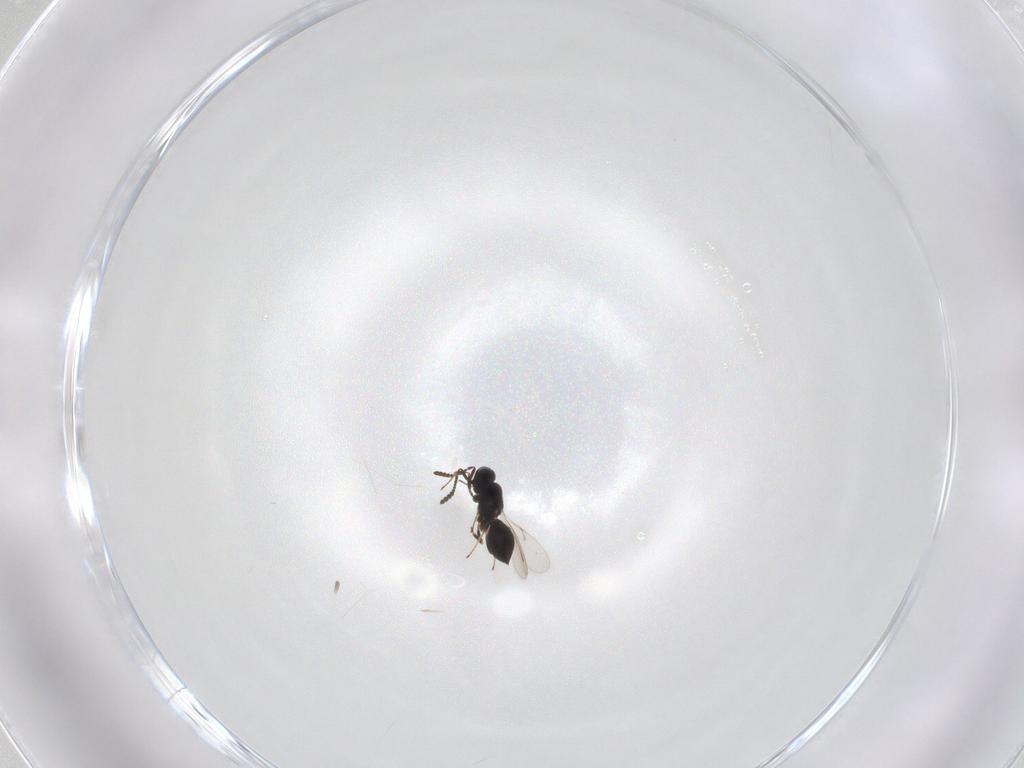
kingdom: Animalia
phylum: Arthropoda
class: Insecta
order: Hymenoptera
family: Scelionidae
